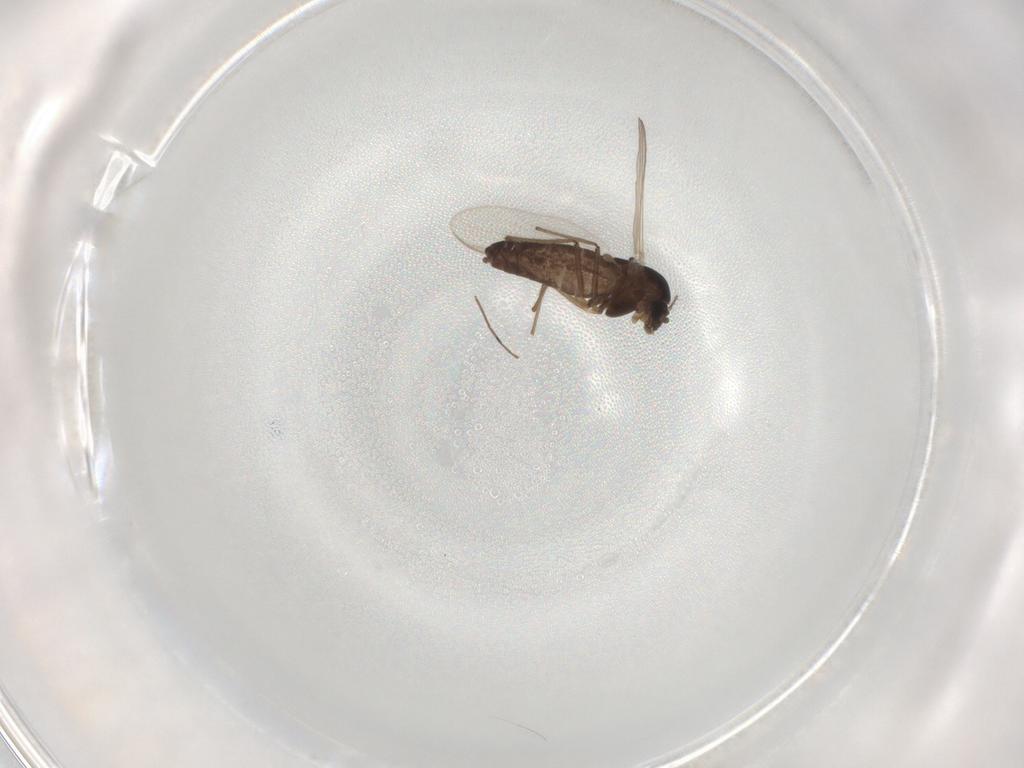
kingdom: Animalia
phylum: Arthropoda
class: Insecta
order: Diptera
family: Chironomidae
